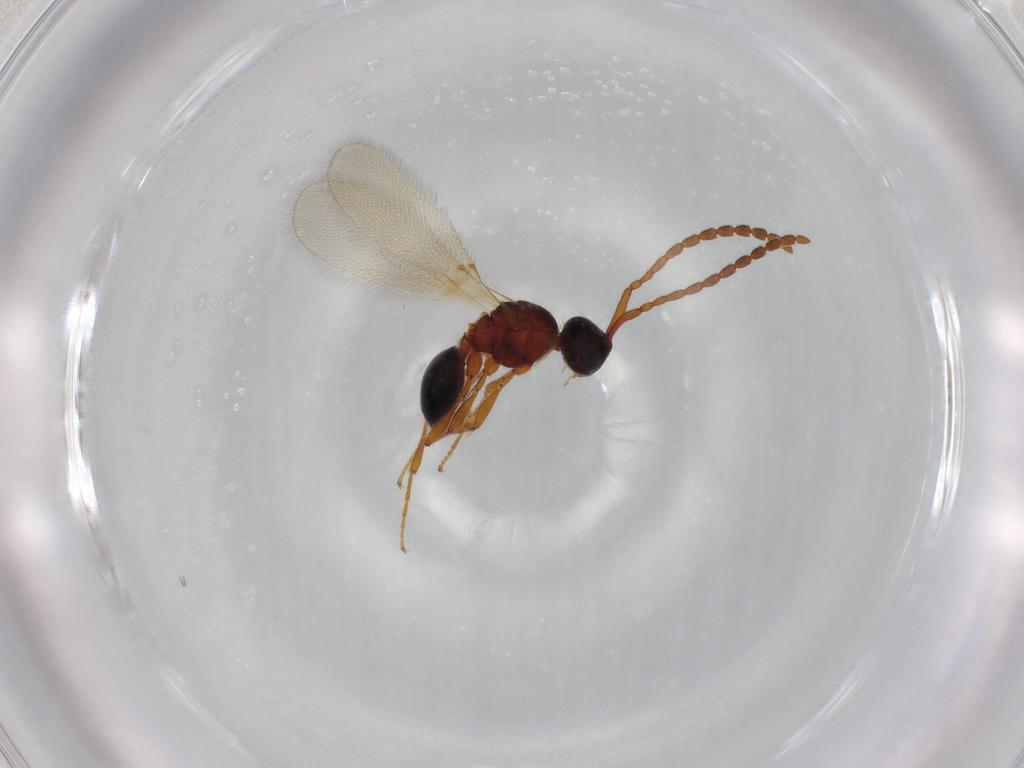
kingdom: Animalia
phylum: Arthropoda
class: Insecta
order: Hymenoptera
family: Diapriidae
